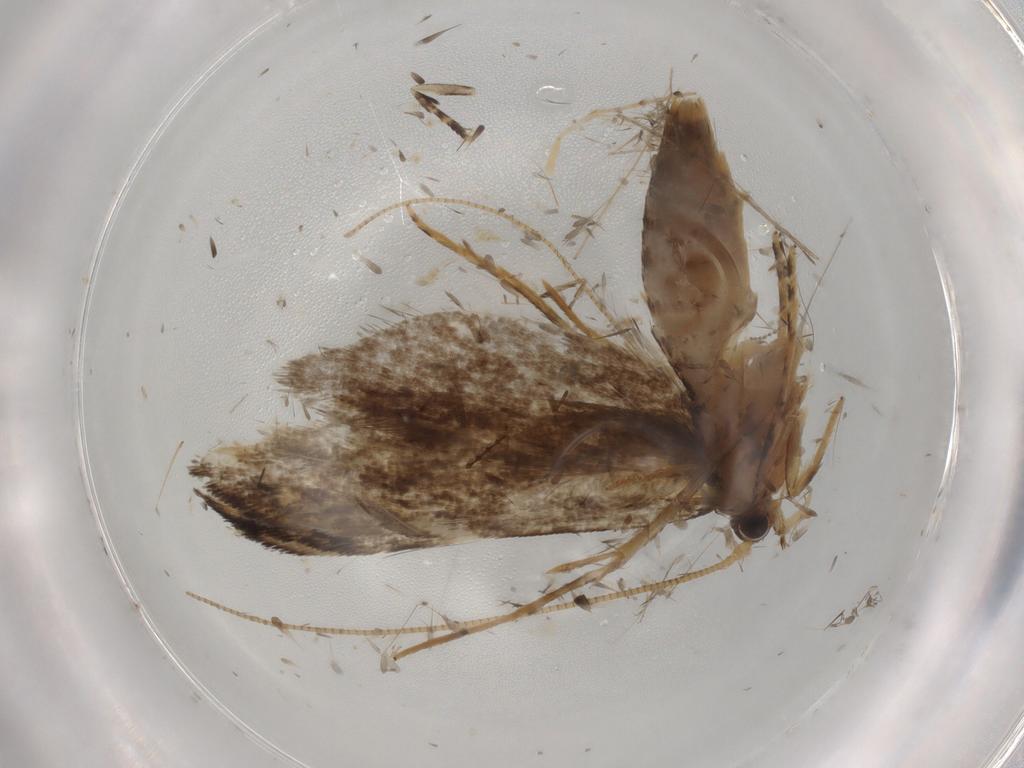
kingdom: Animalia
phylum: Arthropoda
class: Insecta
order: Lepidoptera
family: Tineidae
